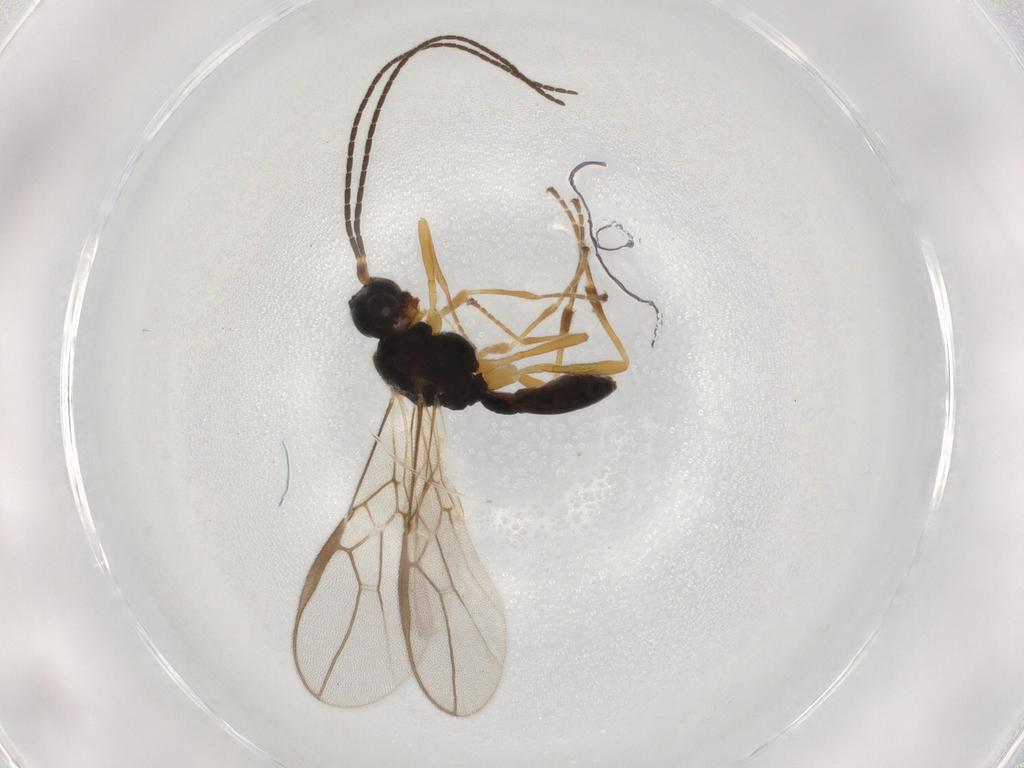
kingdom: Animalia
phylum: Arthropoda
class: Insecta
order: Hymenoptera
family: Braconidae
